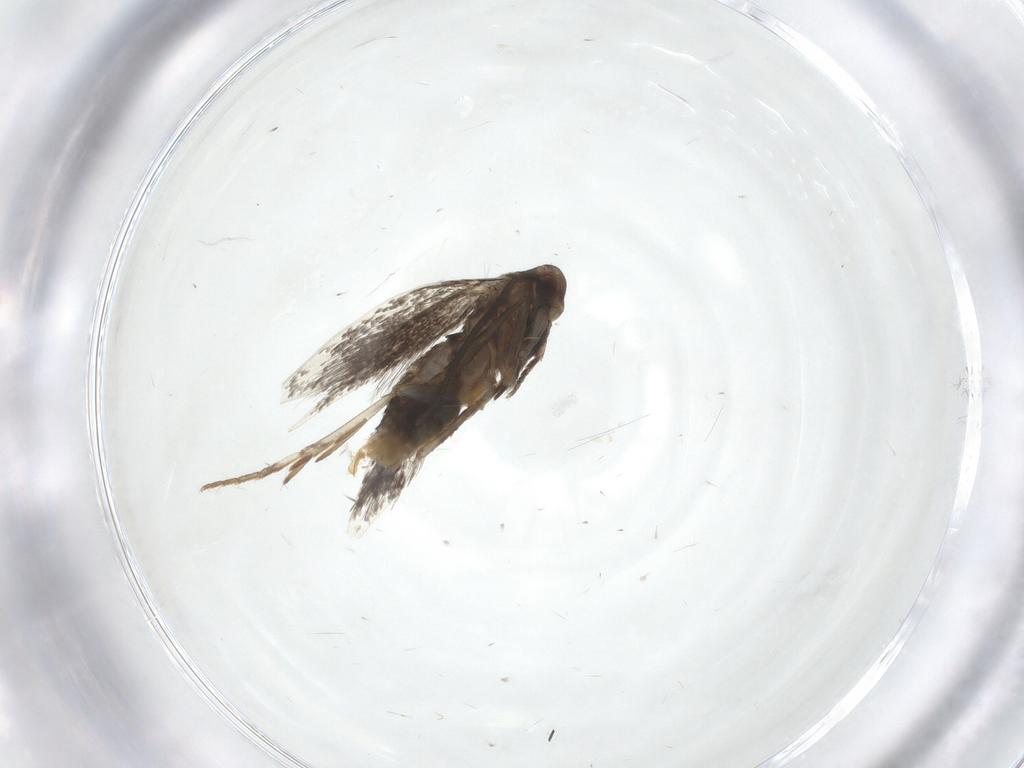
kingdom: Animalia
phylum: Arthropoda
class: Insecta
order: Lepidoptera
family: Elachistidae
